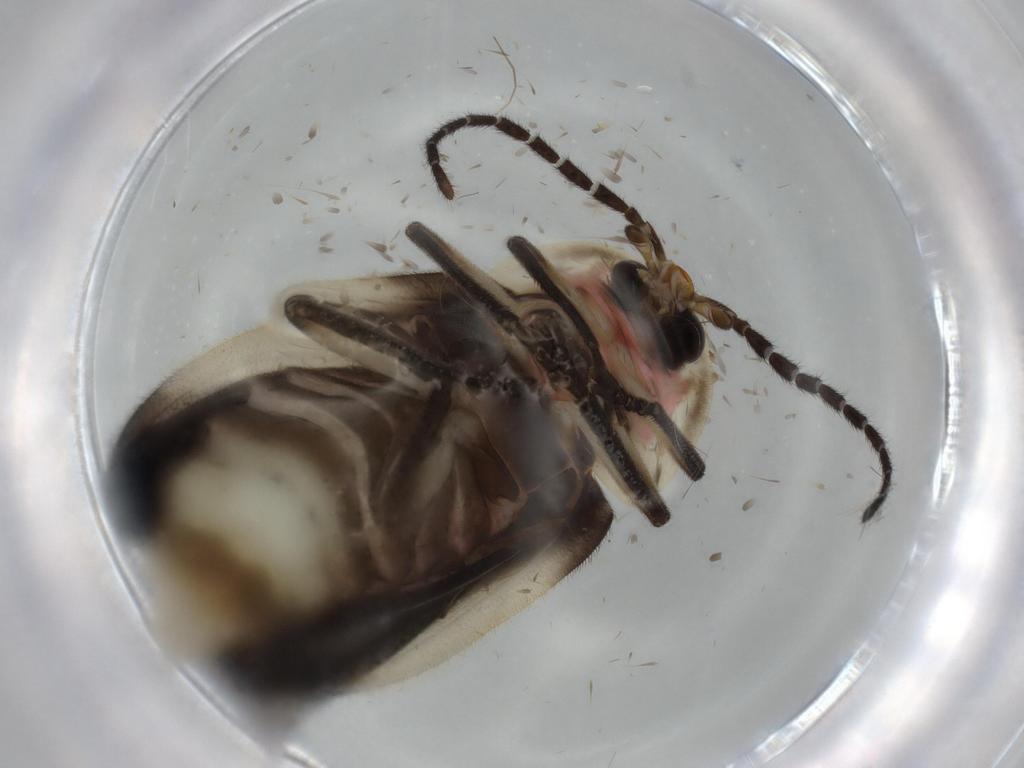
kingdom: Animalia
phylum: Arthropoda
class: Insecta
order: Coleoptera
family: Lampyridae
